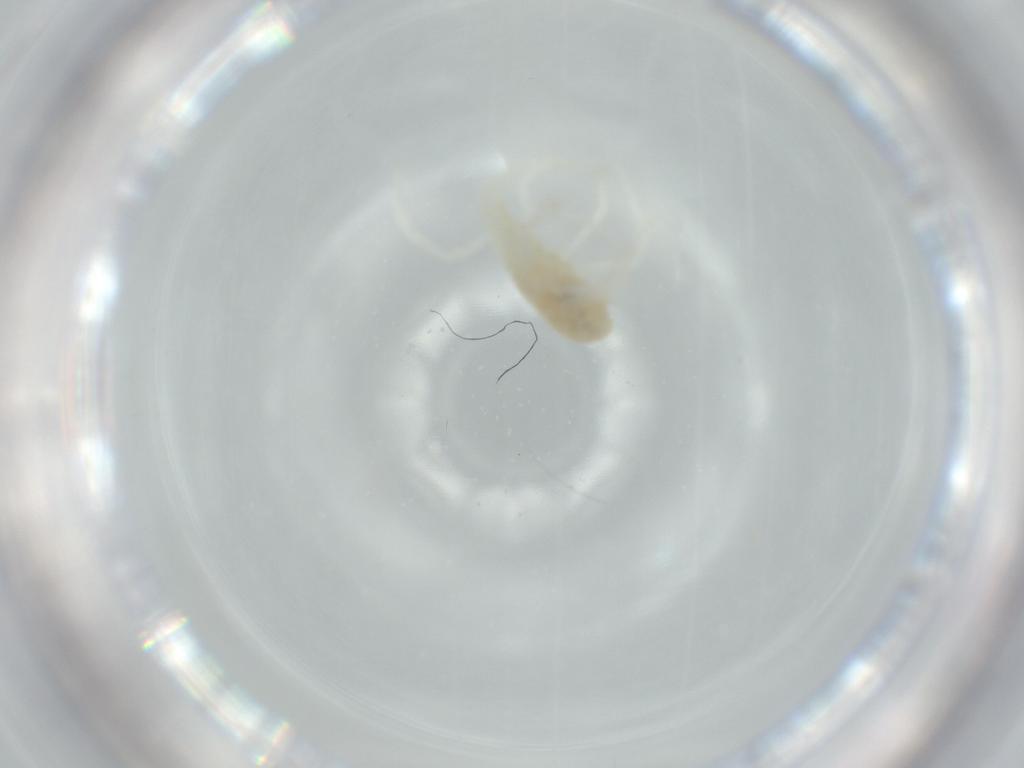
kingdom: Animalia
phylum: Arthropoda
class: Arachnida
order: Trombidiformes
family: Rhagidiidae
